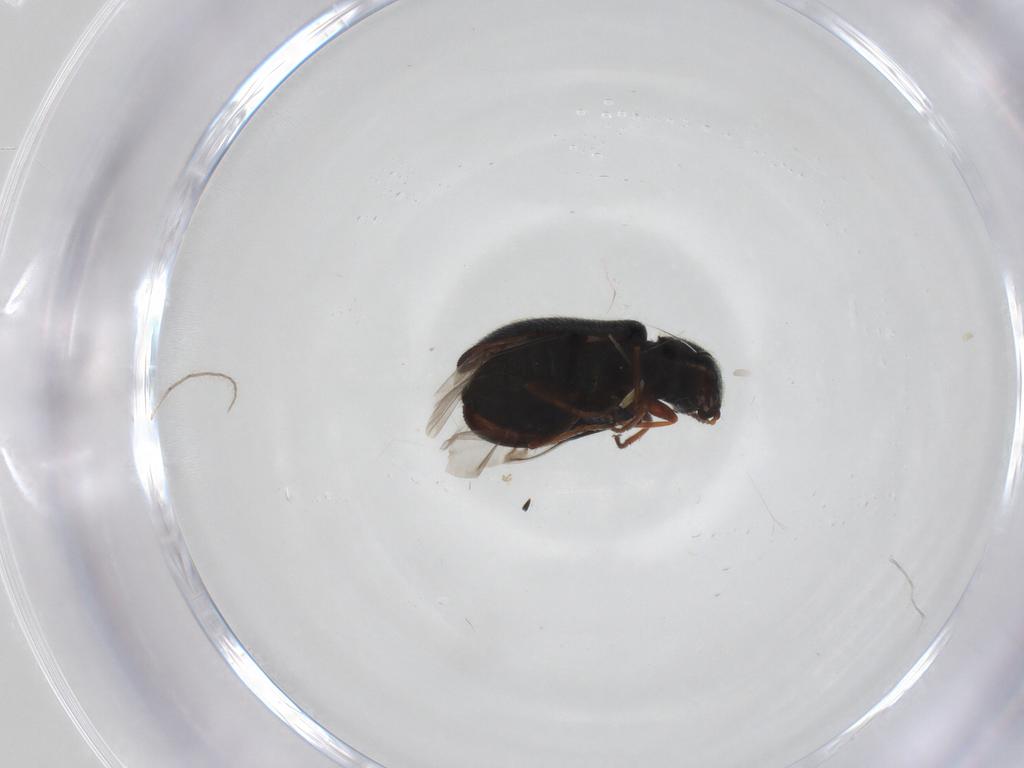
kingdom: Animalia
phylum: Arthropoda
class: Insecta
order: Coleoptera
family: Melyridae
